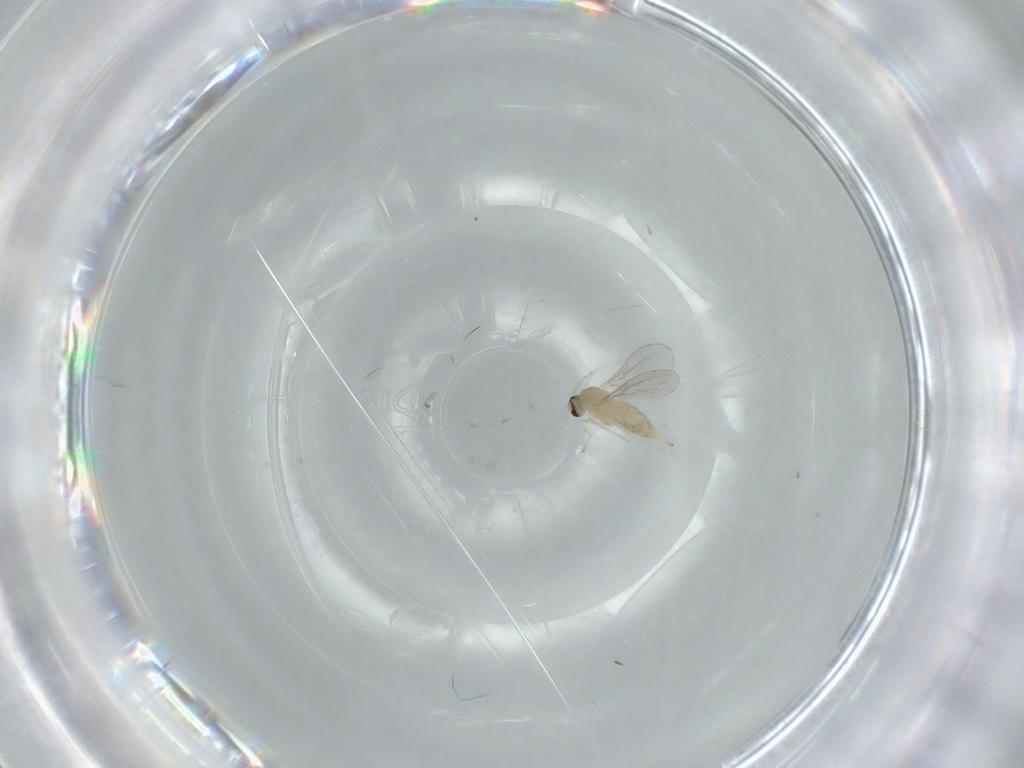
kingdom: Animalia
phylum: Arthropoda
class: Insecta
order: Diptera
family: Cecidomyiidae
